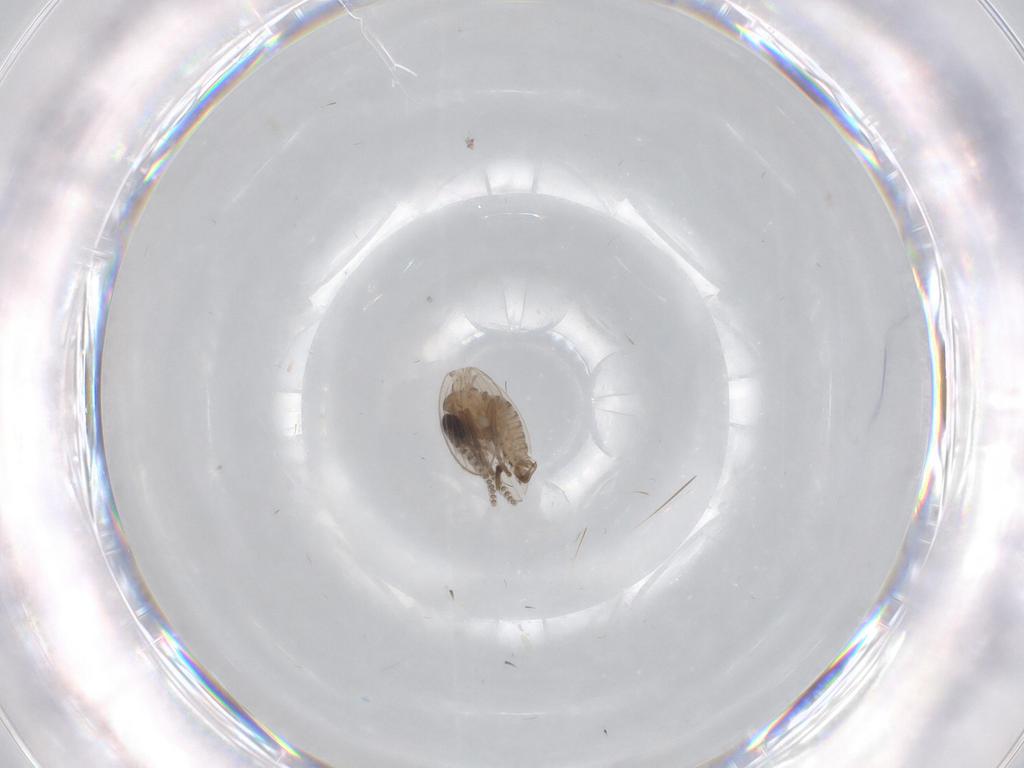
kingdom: Animalia
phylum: Arthropoda
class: Insecta
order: Diptera
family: Psychodidae
